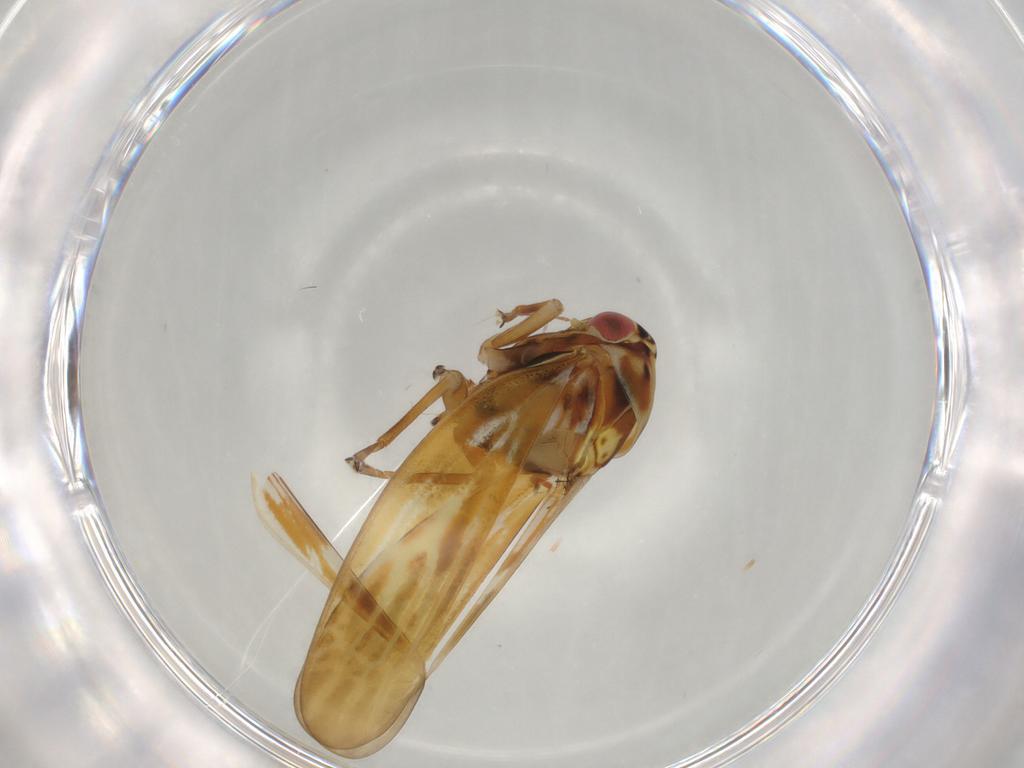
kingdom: Animalia
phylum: Arthropoda
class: Insecta
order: Hemiptera
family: Cicadellidae
